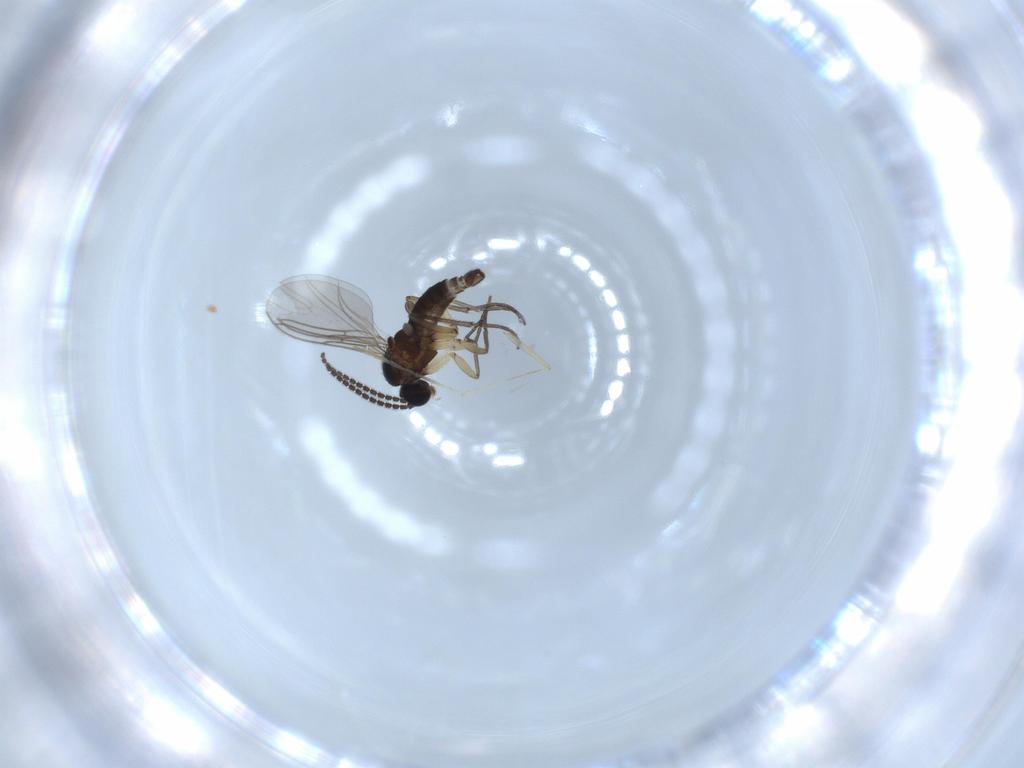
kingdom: Animalia
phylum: Arthropoda
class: Insecta
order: Diptera
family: Sciaridae
